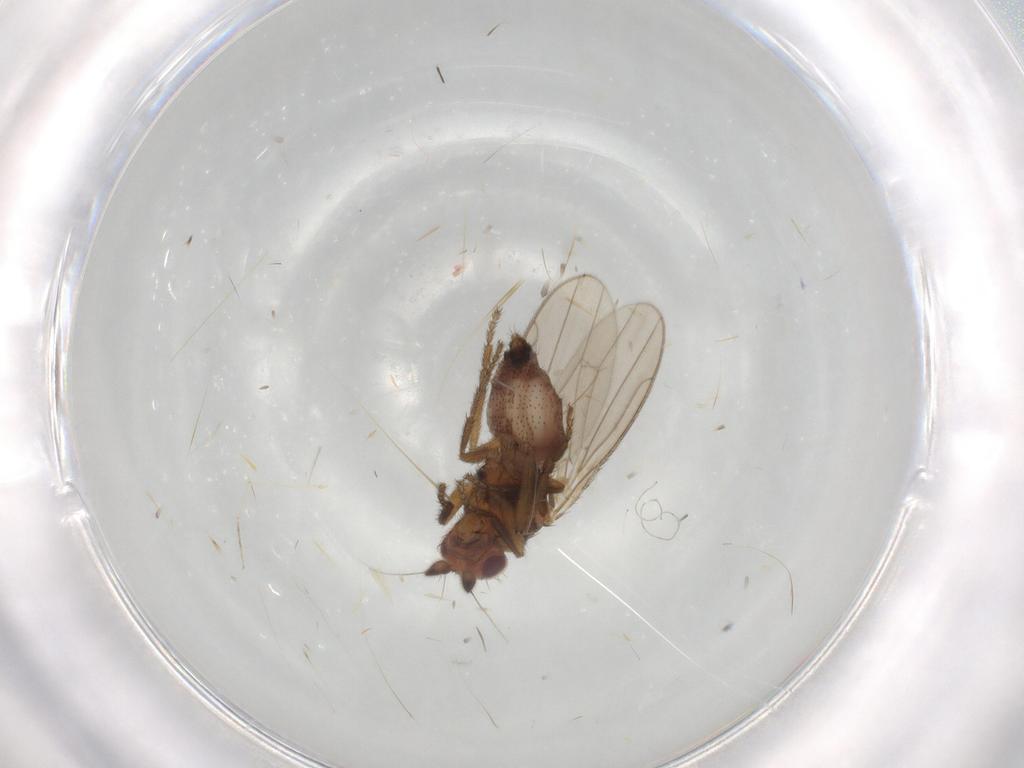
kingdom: Animalia
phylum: Arthropoda
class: Insecta
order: Diptera
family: Sphaeroceridae
